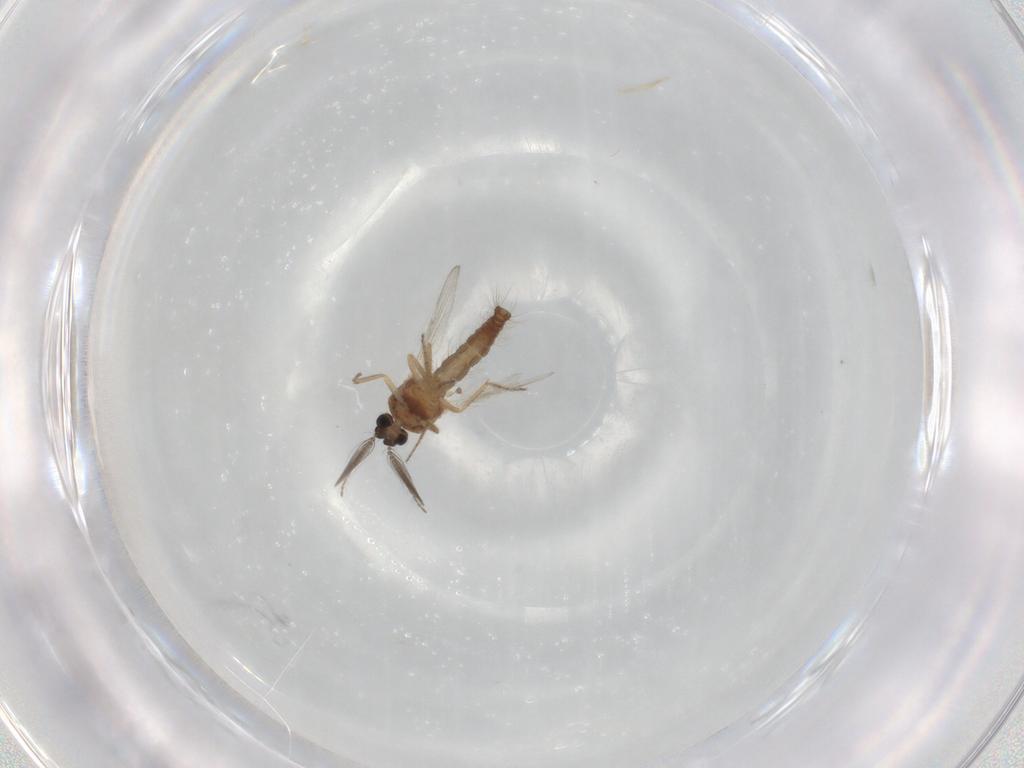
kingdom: Animalia
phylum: Arthropoda
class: Insecta
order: Diptera
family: Ceratopogonidae
